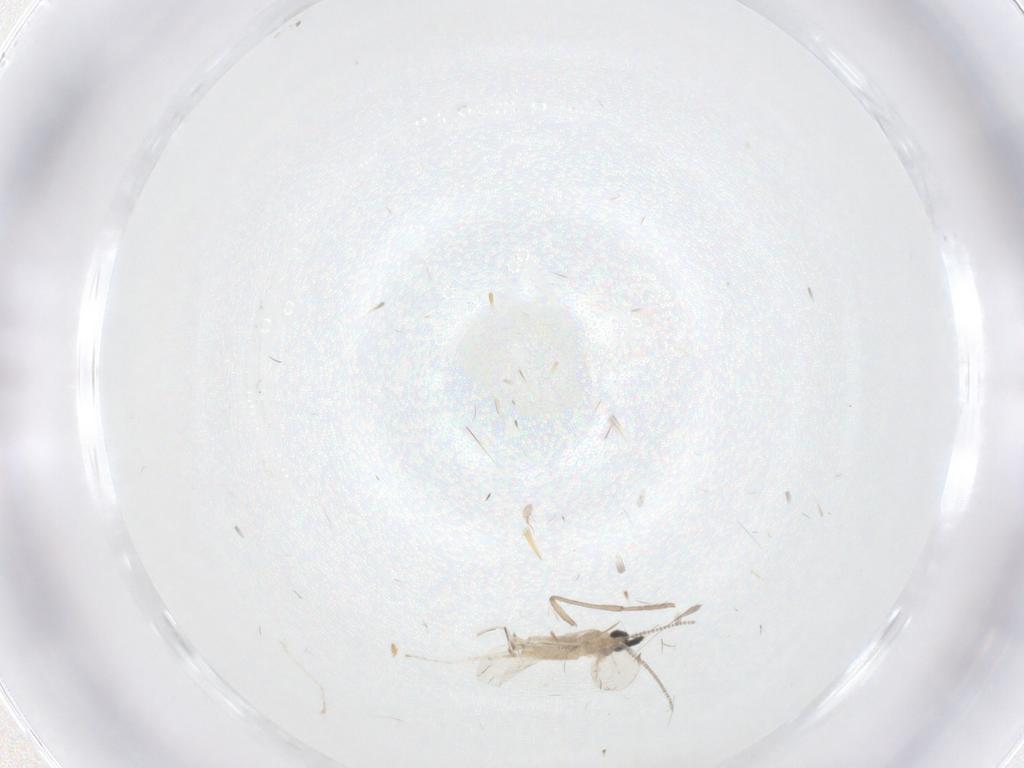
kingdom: Animalia
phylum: Arthropoda
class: Insecta
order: Diptera
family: Cecidomyiidae
